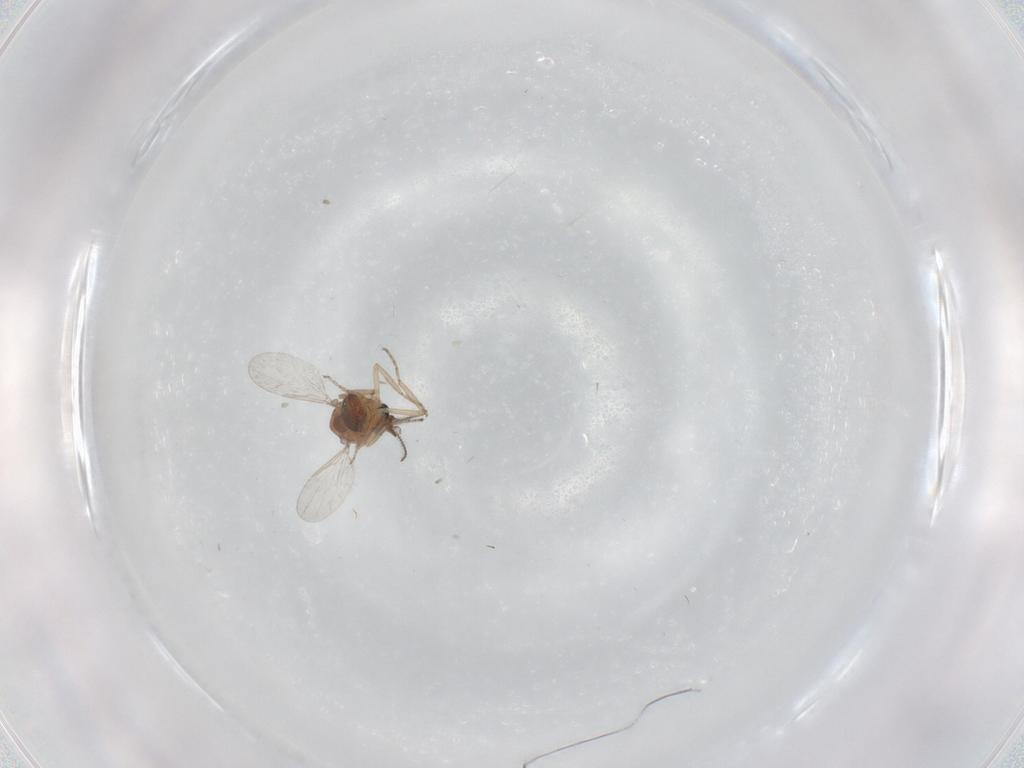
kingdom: Animalia
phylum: Arthropoda
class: Insecta
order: Diptera
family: Ceratopogonidae
